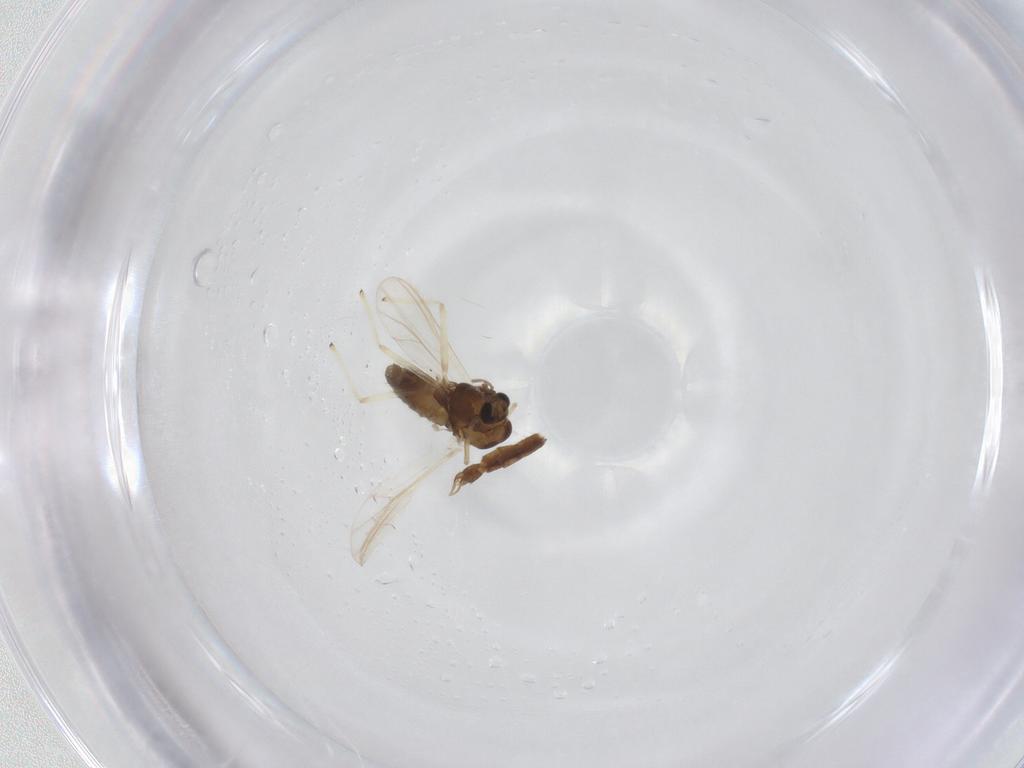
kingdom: Animalia
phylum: Arthropoda
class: Insecta
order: Diptera
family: Chironomidae
